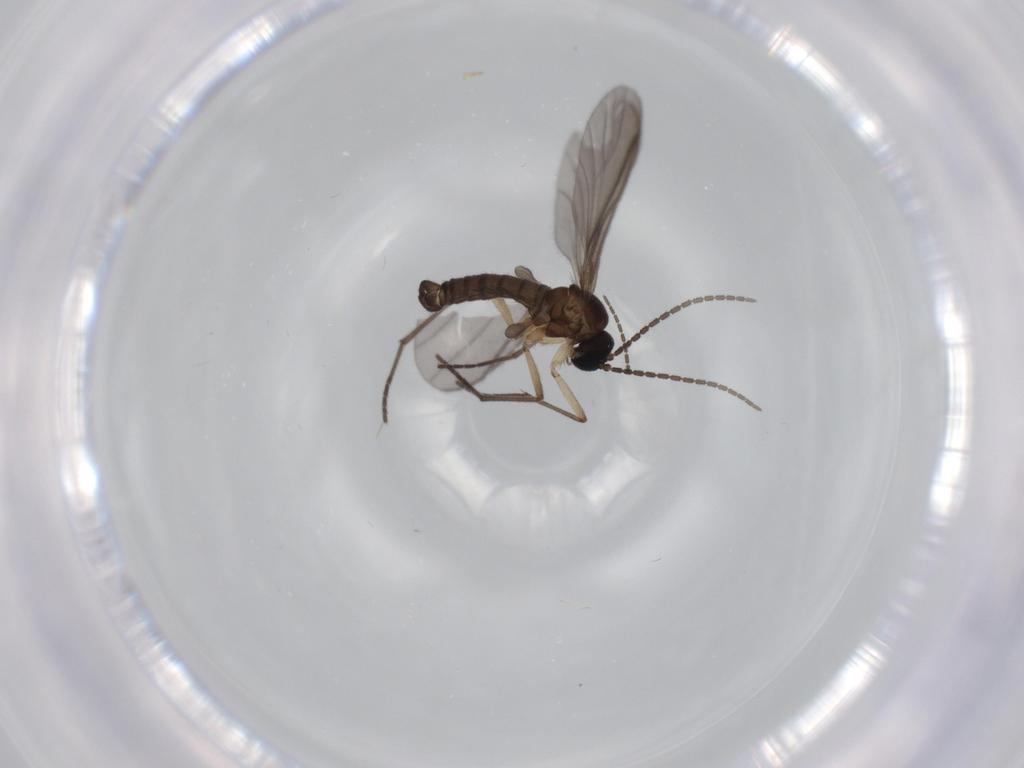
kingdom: Animalia
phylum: Arthropoda
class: Insecta
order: Diptera
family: Sciaridae
